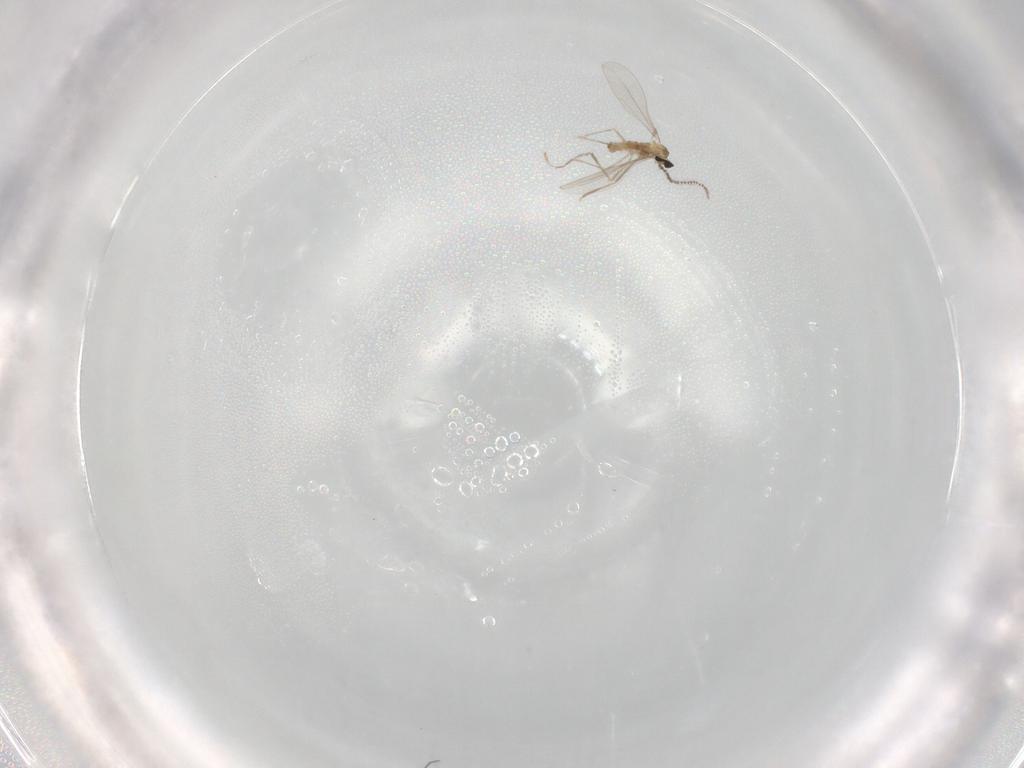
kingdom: Animalia
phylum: Arthropoda
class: Insecta
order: Diptera
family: Cecidomyiidae
